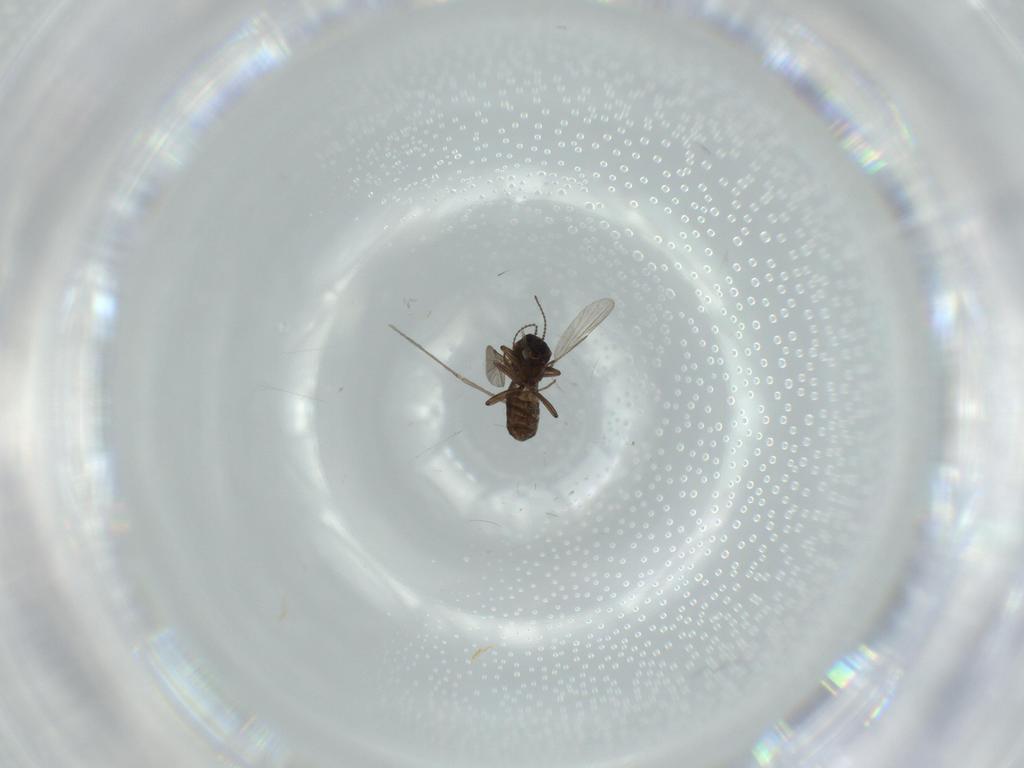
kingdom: Animalia
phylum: Arthropoda
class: Insecta
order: Diptera
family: Ceratopogonidae
